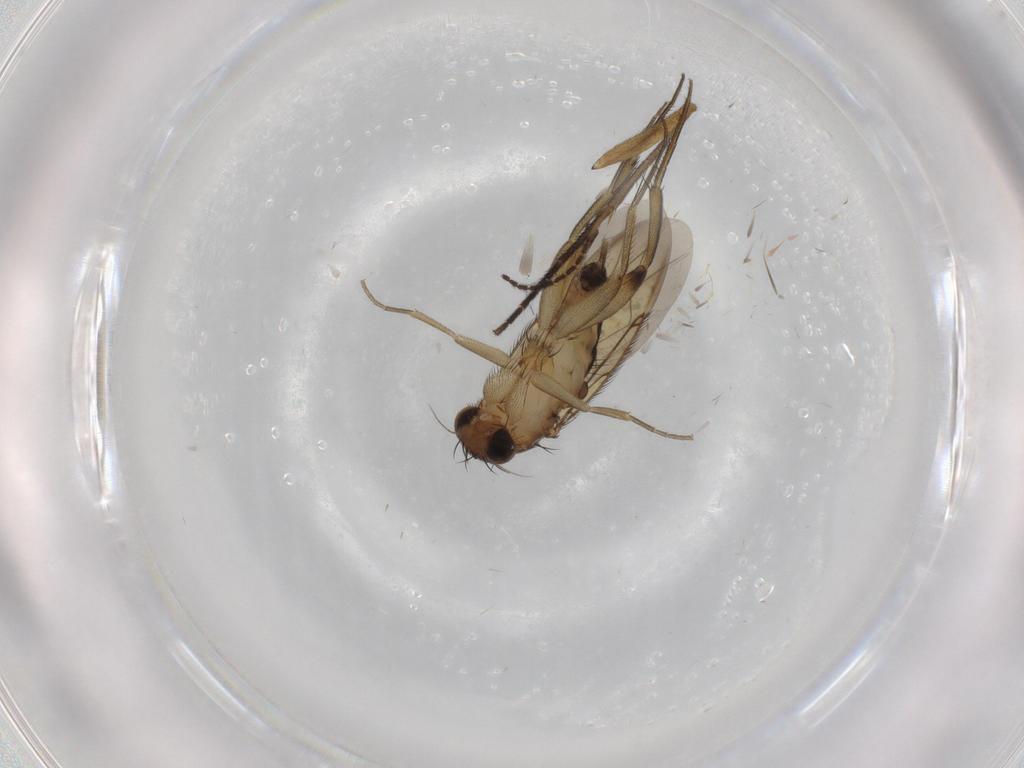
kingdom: Animalia
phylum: Arthropoda
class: Insecta
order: Diptera
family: Phoridae
